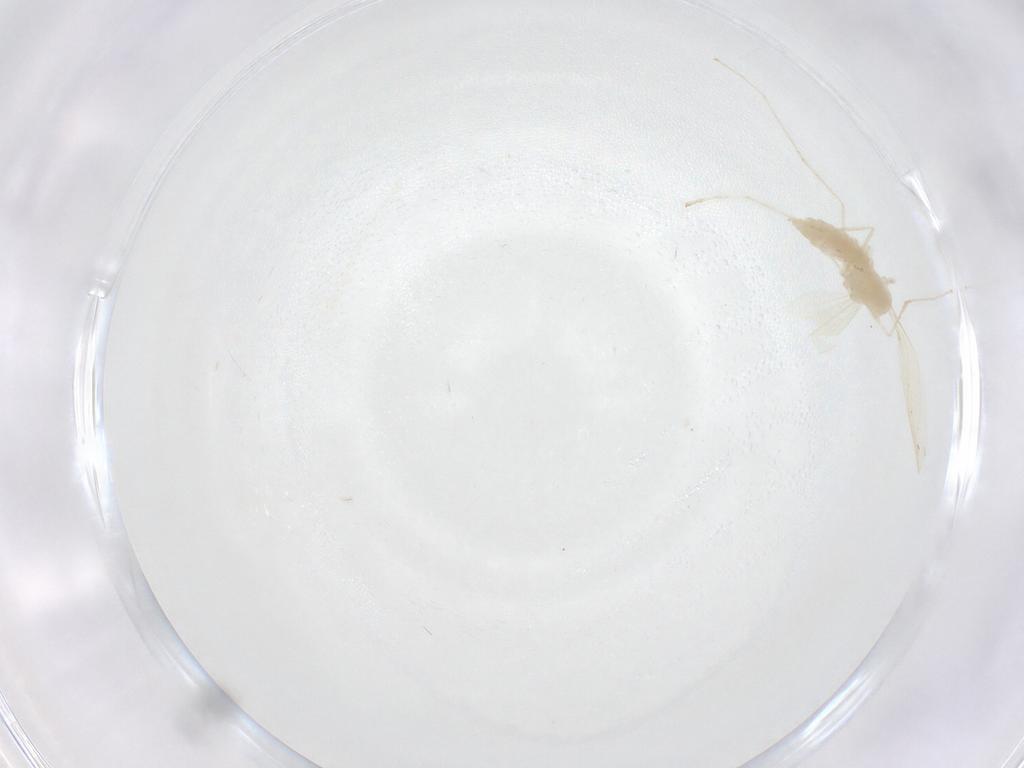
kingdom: Animalia
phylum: Arthropoda
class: Insecta
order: Diptera
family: Cecidomyiidae
